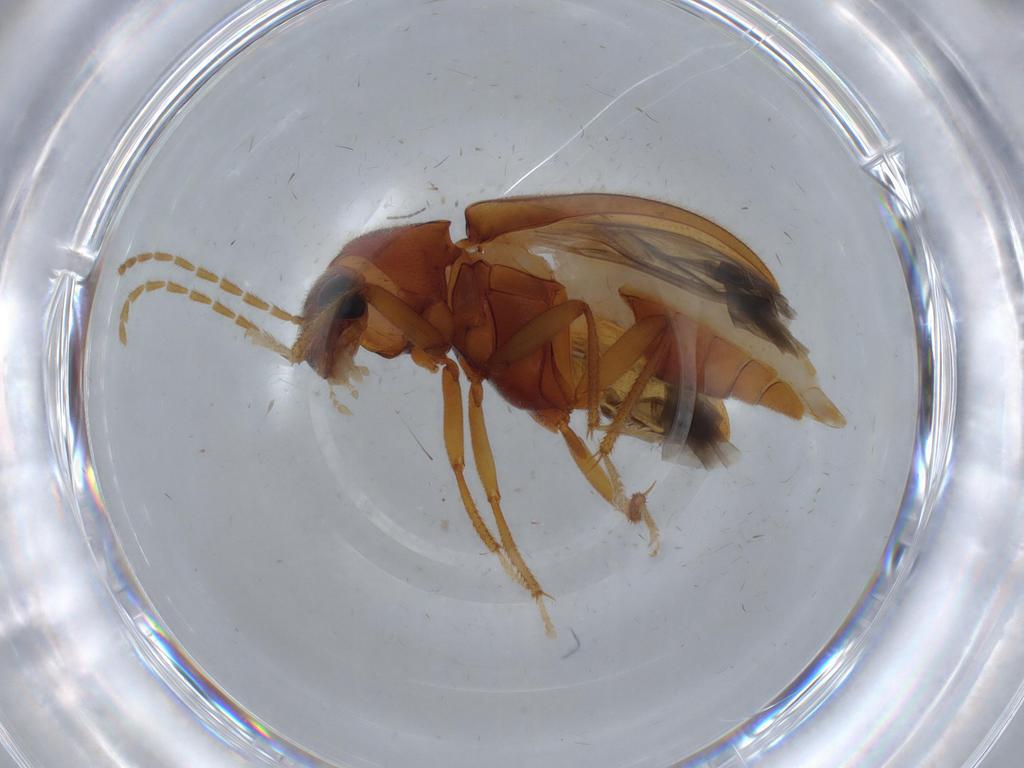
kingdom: Animalia
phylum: Arthropoda
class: Insecta
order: Coleoptera
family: Ptilodactylidae
